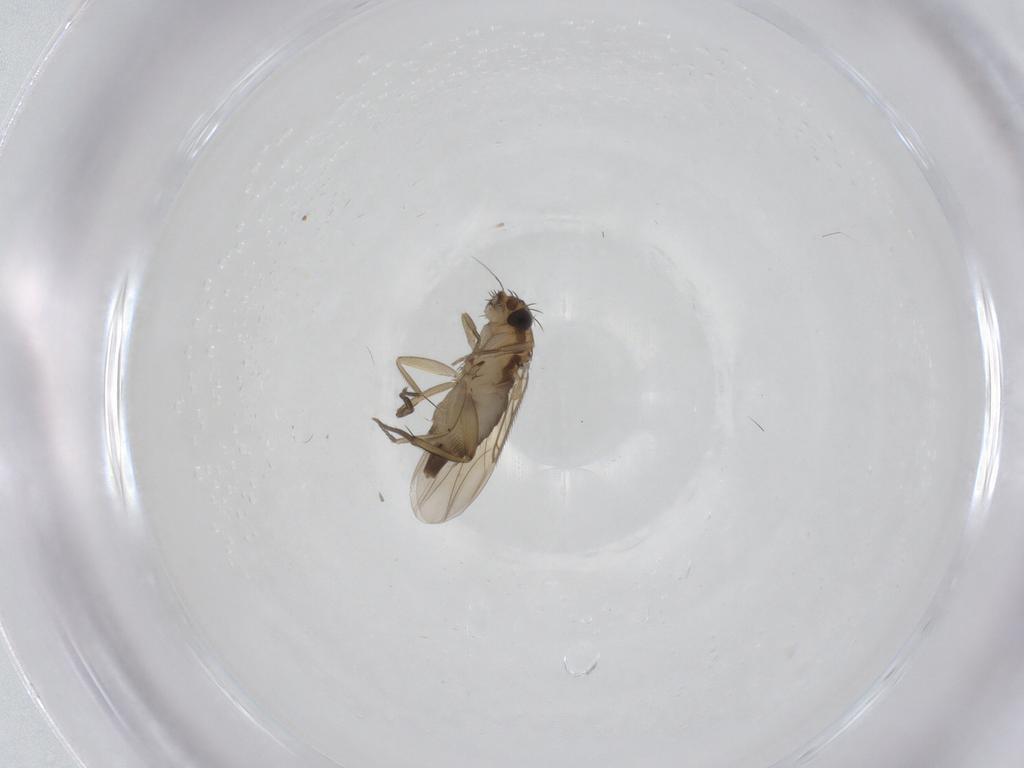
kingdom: Animalia
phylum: Arthropoda
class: Insecta
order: Diptera
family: Phoridae
